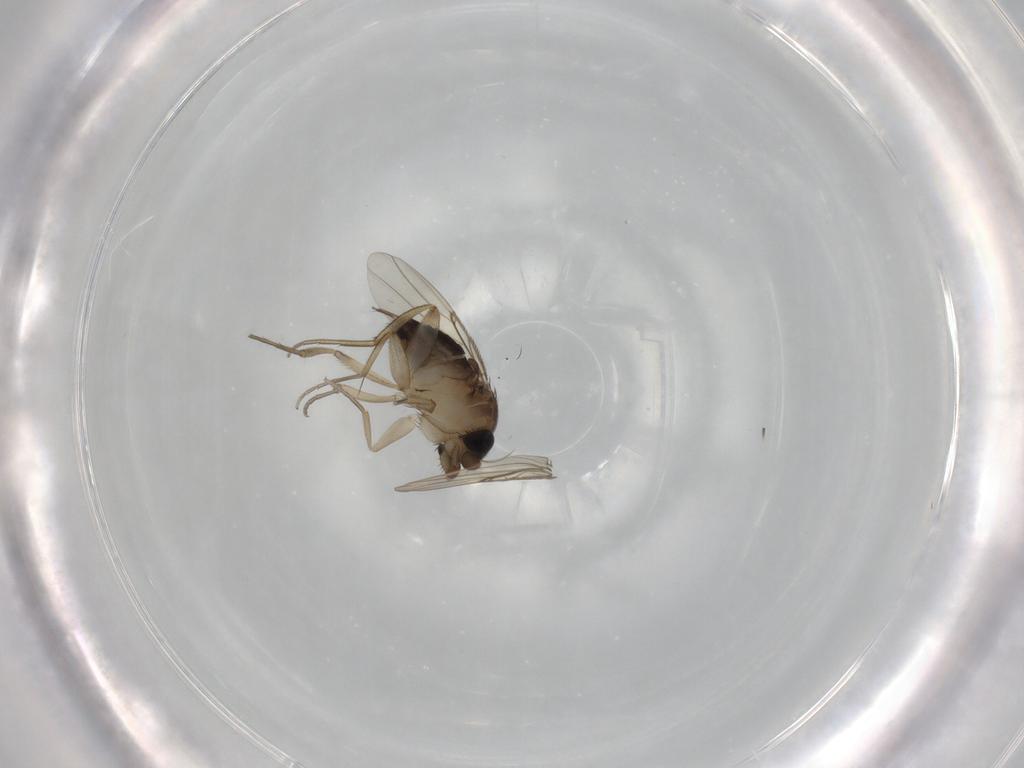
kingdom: Animalia
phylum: Arthropoda
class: Insecta
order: Diptera
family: Phoridae
